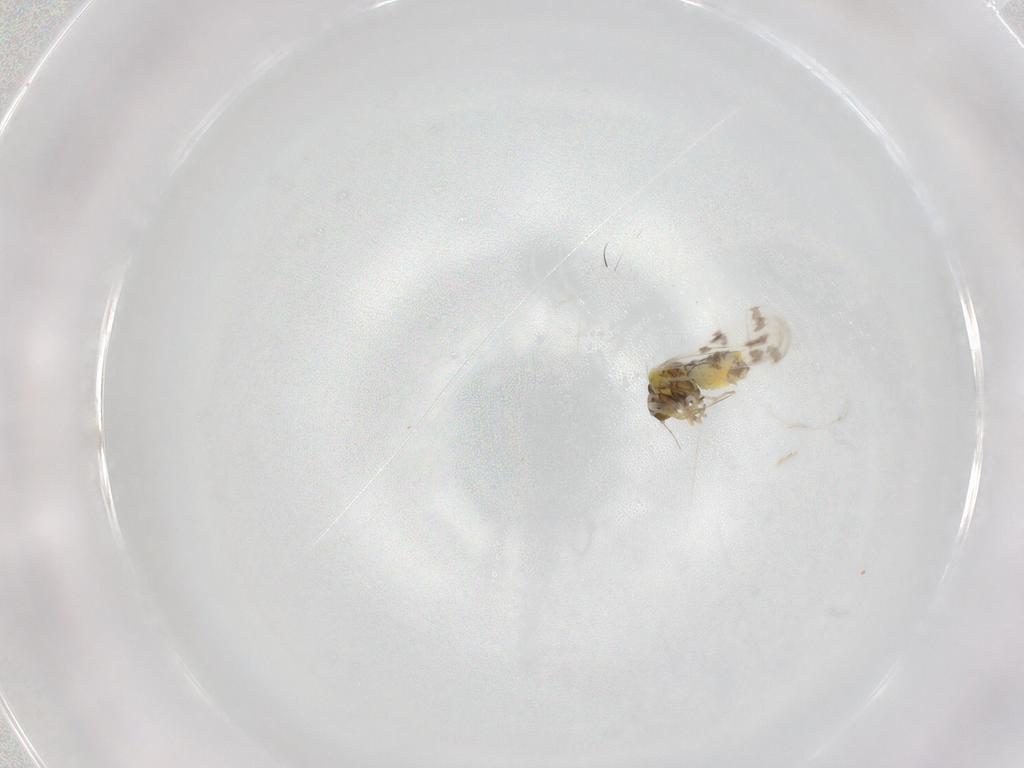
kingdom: Animalia
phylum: Arthropoda
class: Insecta
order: Hemiptera
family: Aleyrodidae
